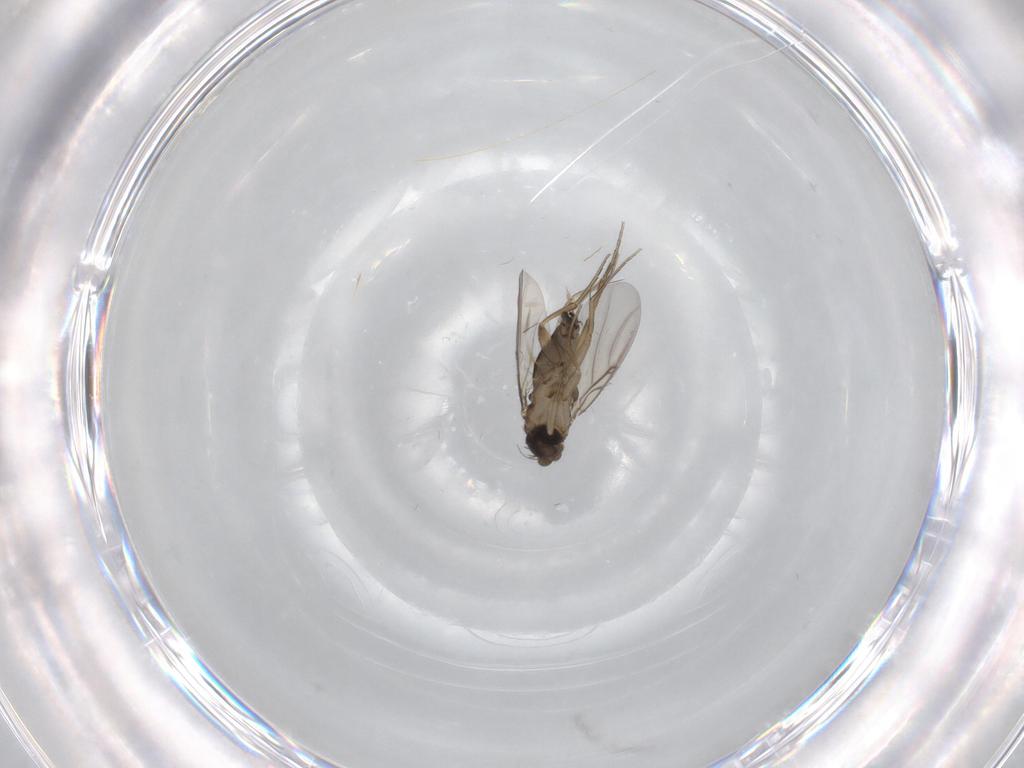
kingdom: Animalia
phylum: Arthropoda
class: Insecta
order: Diptera
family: Phoridae
